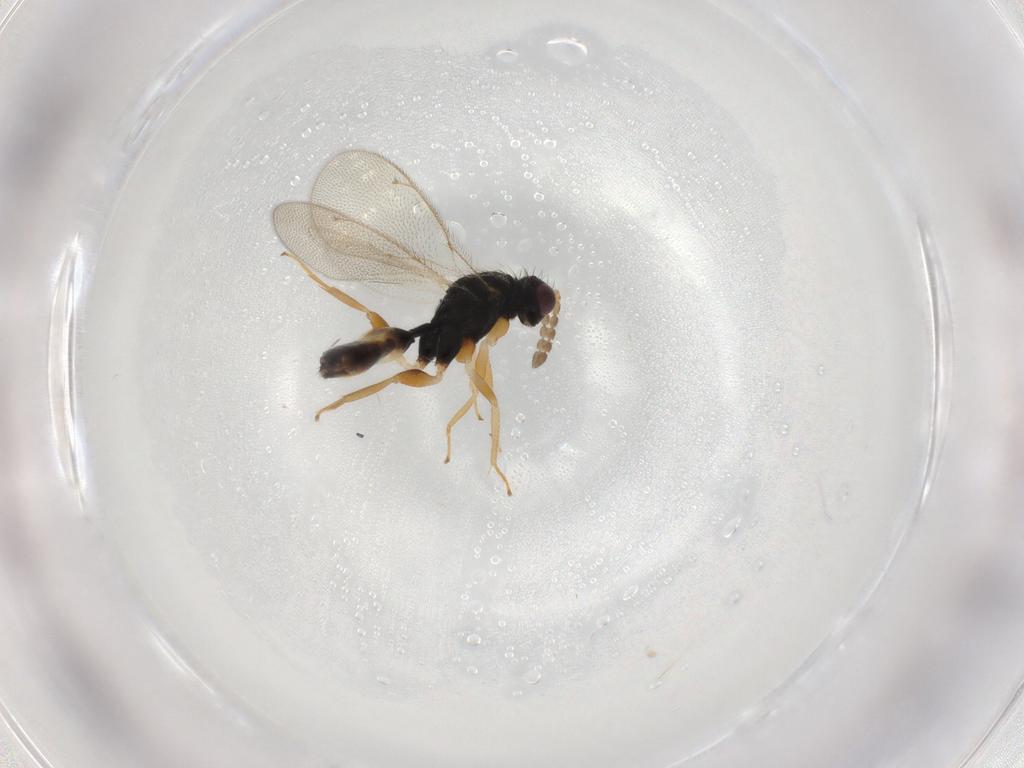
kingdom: Animalia
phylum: Arthropoda
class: Insecta
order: Hymenoptera
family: Eulophidae
